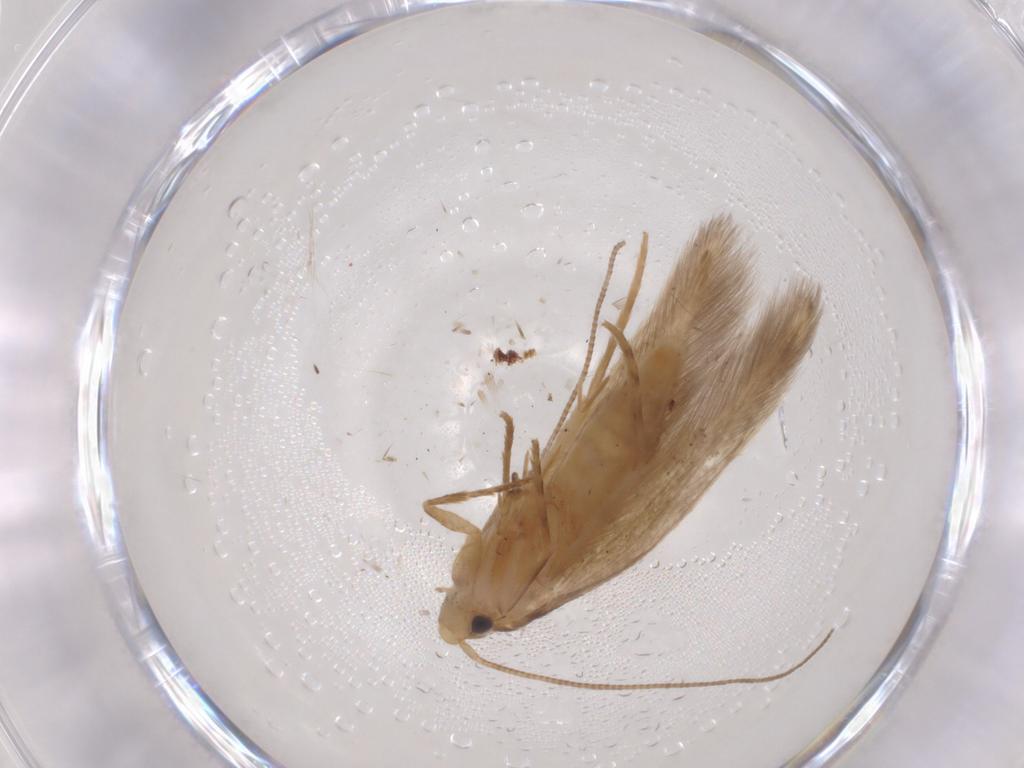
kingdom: Animalia
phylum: Arthropoda
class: Insecta
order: Lepidoptera
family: Tineidae
